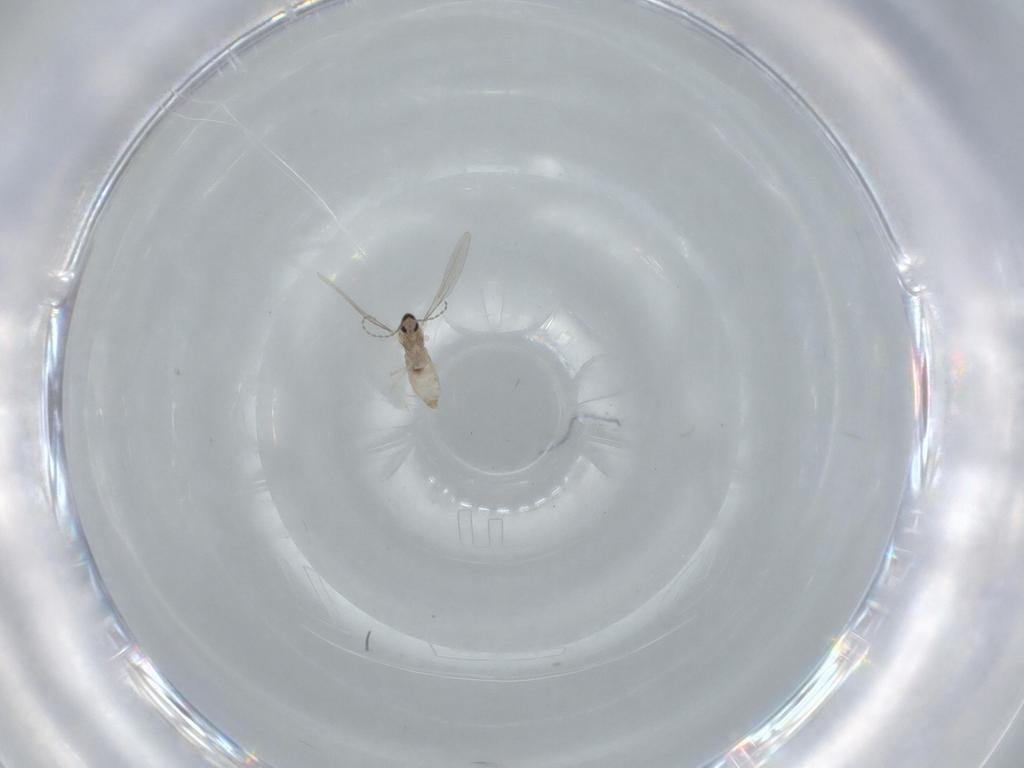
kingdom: Animalia
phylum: Arthropoda
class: Insecta
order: Diptera
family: Cecidomyiidae
